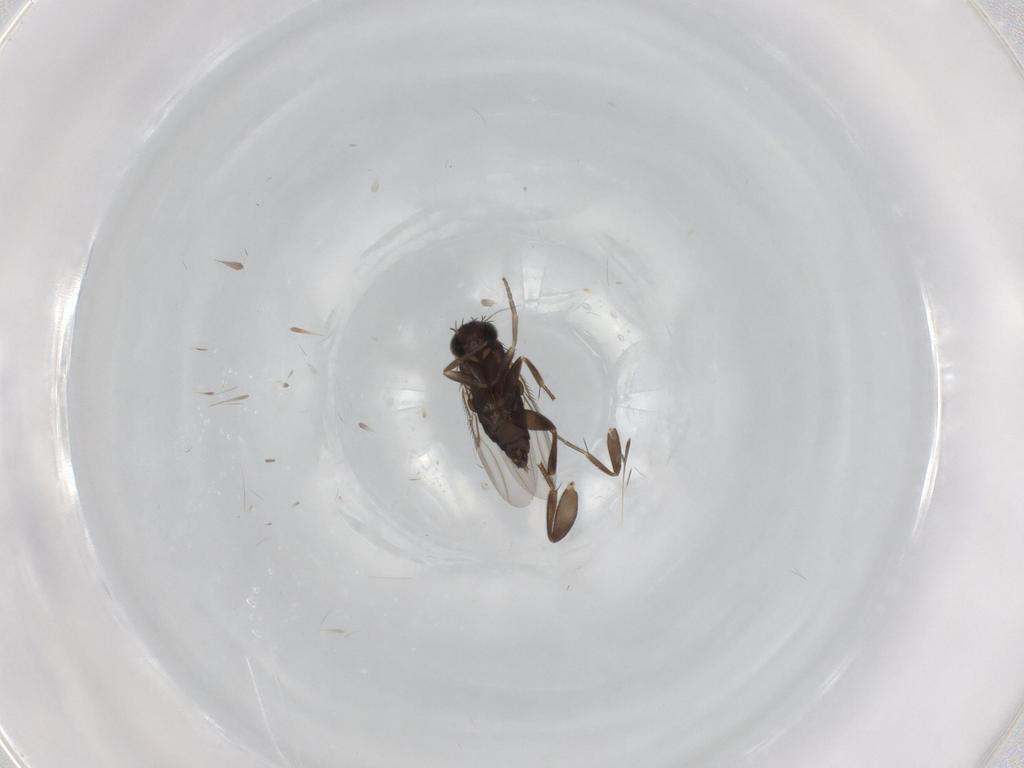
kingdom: Animalia
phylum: Arthropoda
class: Insecta
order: Diptera
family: Phoridae
